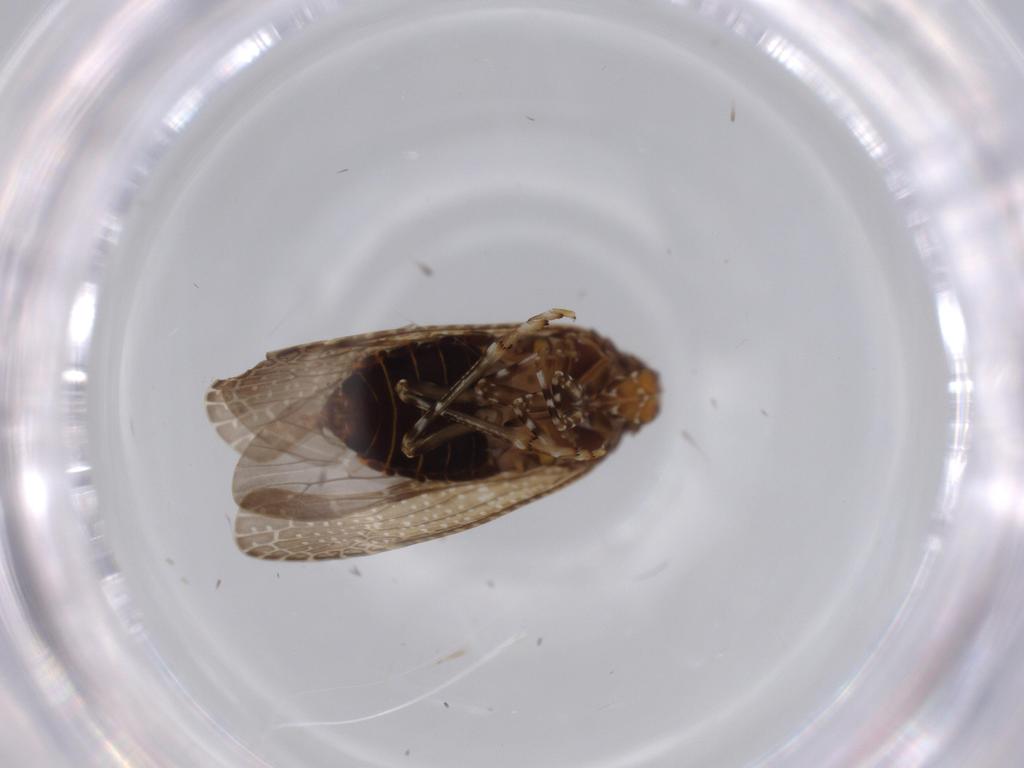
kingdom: Animalia
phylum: Arthropoda
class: Insecta
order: Hemiptera
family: Achilidae
